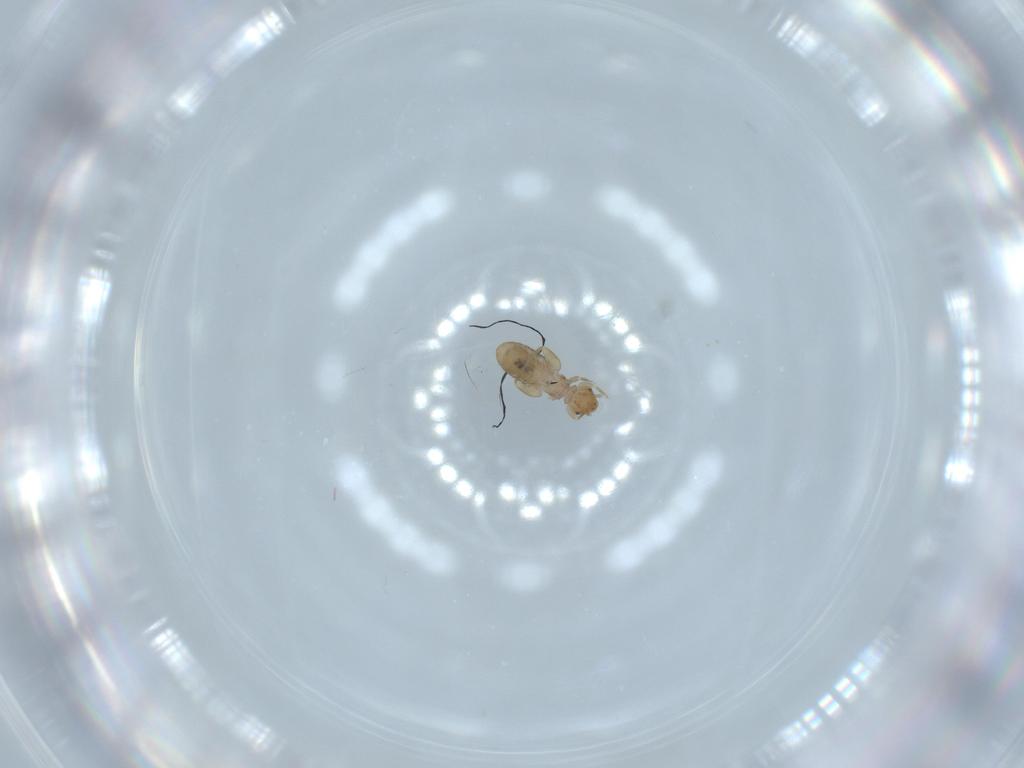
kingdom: Animalia
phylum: Arthropoda
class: Insecta
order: Psocodea
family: Liposcelididae
